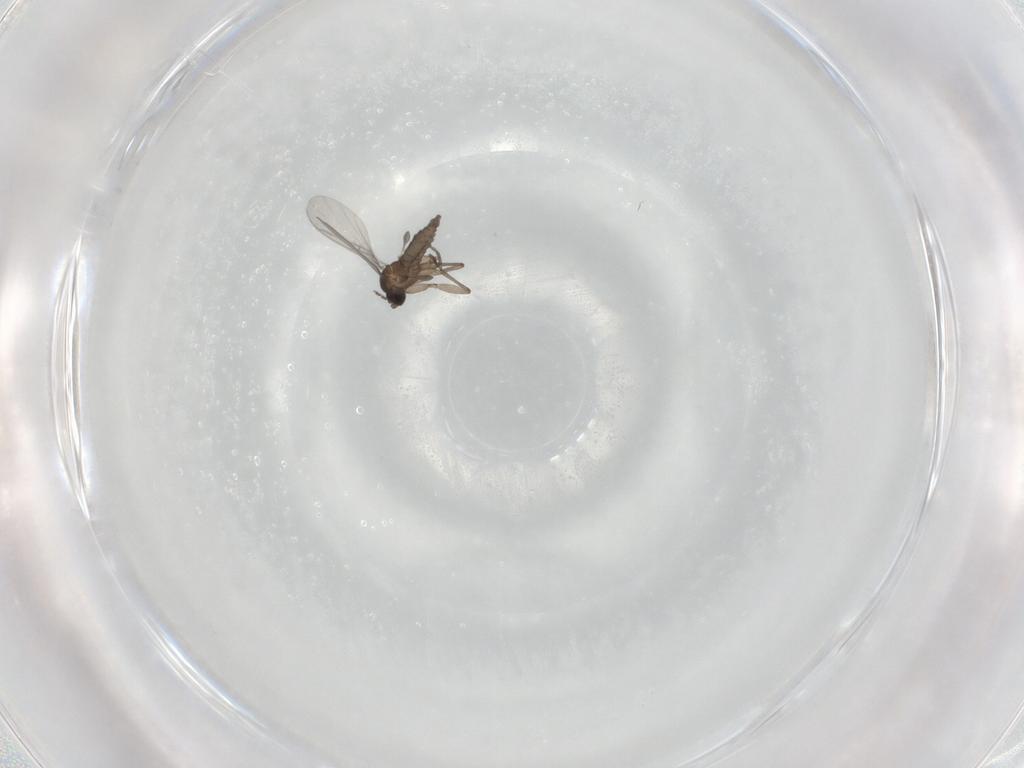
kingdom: Animalia
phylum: Arthropoda
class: Insecta
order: Diptera
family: Sciaridae
